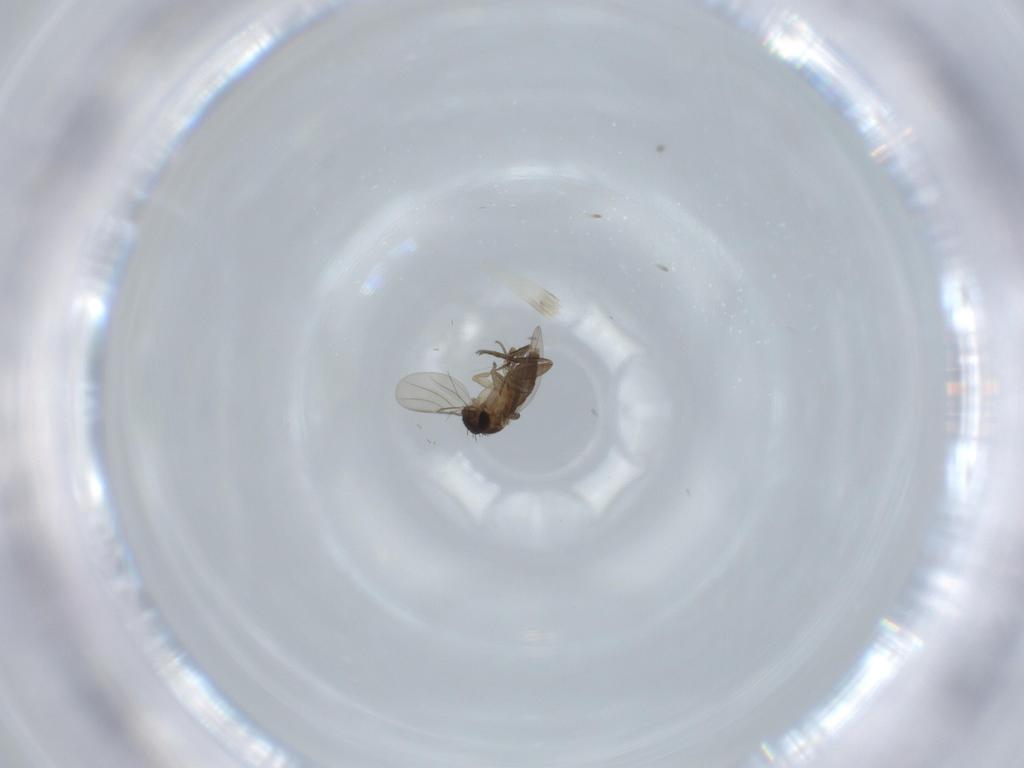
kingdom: Animalia
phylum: Arthropoda
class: Insecta
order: Diptera
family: Phoridae
